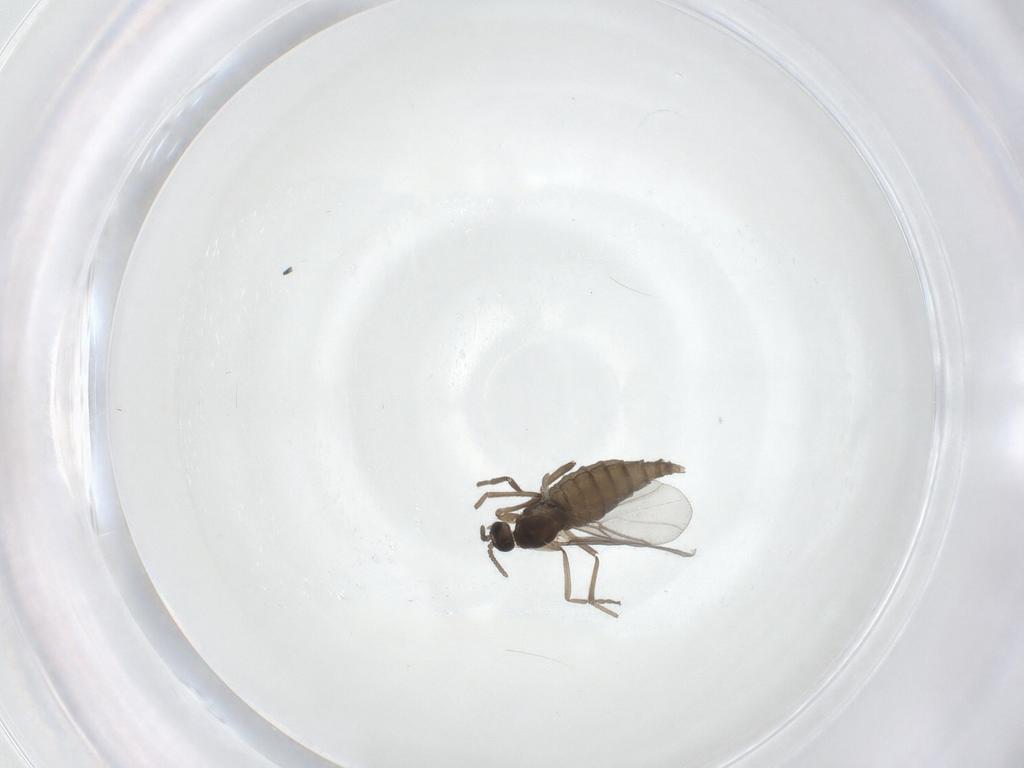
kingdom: Animalia
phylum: Arthropoda
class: Insecta
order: Diptera
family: Cecidomyiidae
